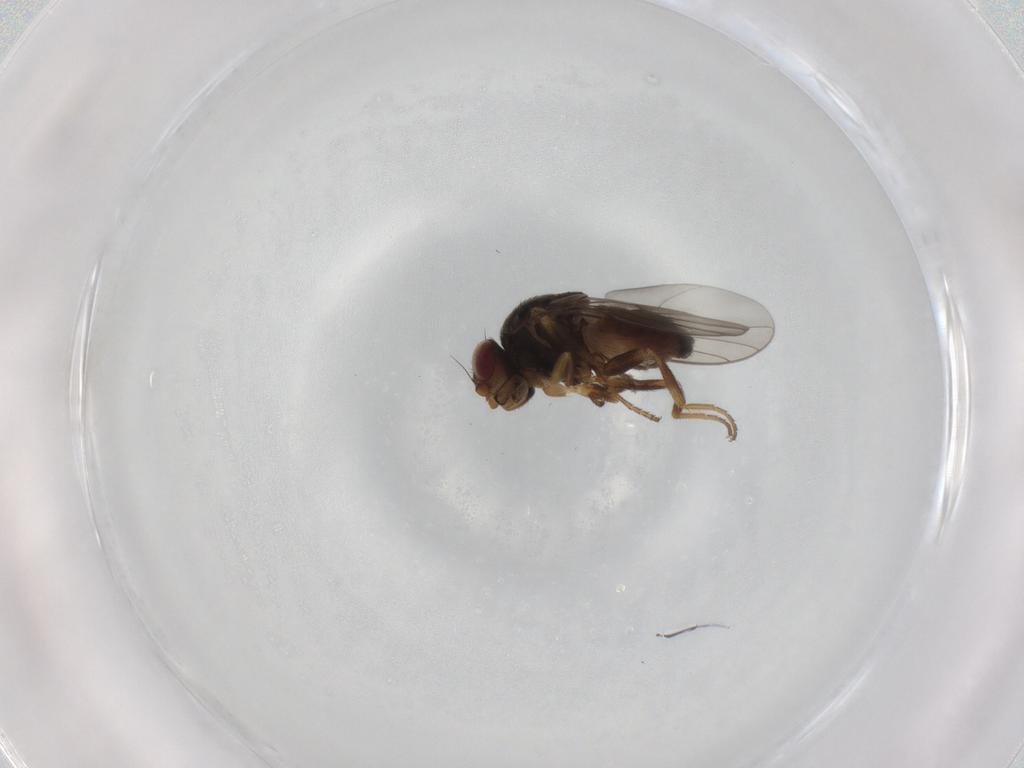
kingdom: Animalia
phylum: Arthropoda
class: Insecta
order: Diptera
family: Chloropidae
